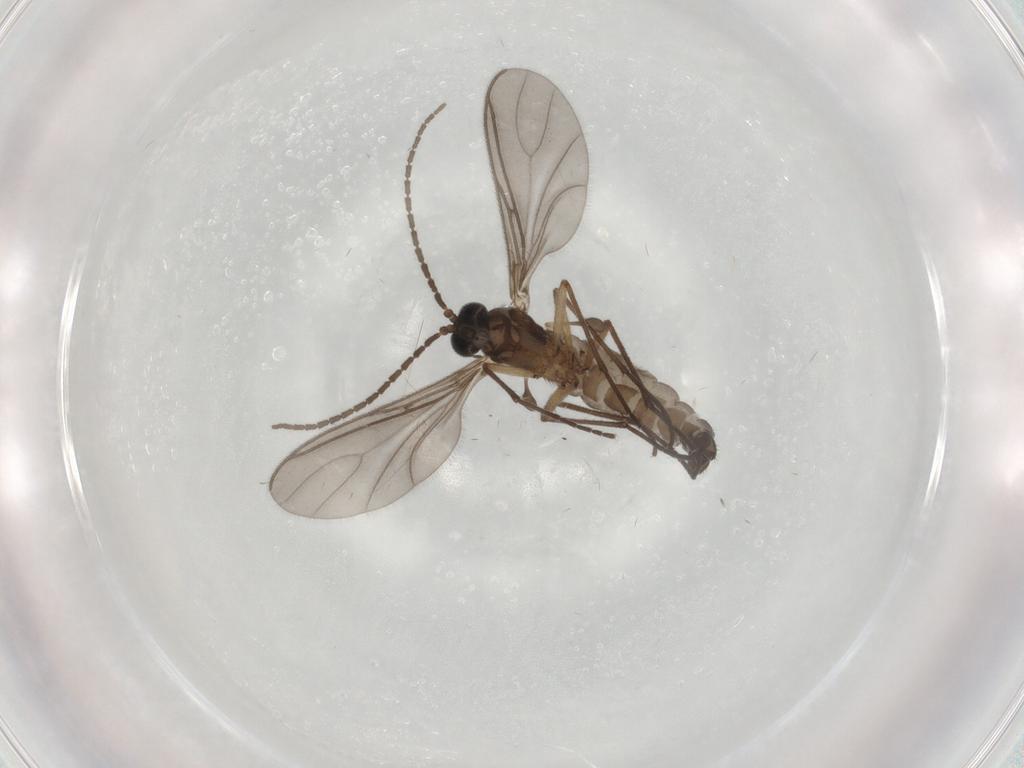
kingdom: Animalia
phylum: Arthropoda
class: Insecta
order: Diptera
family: Sciaridae
